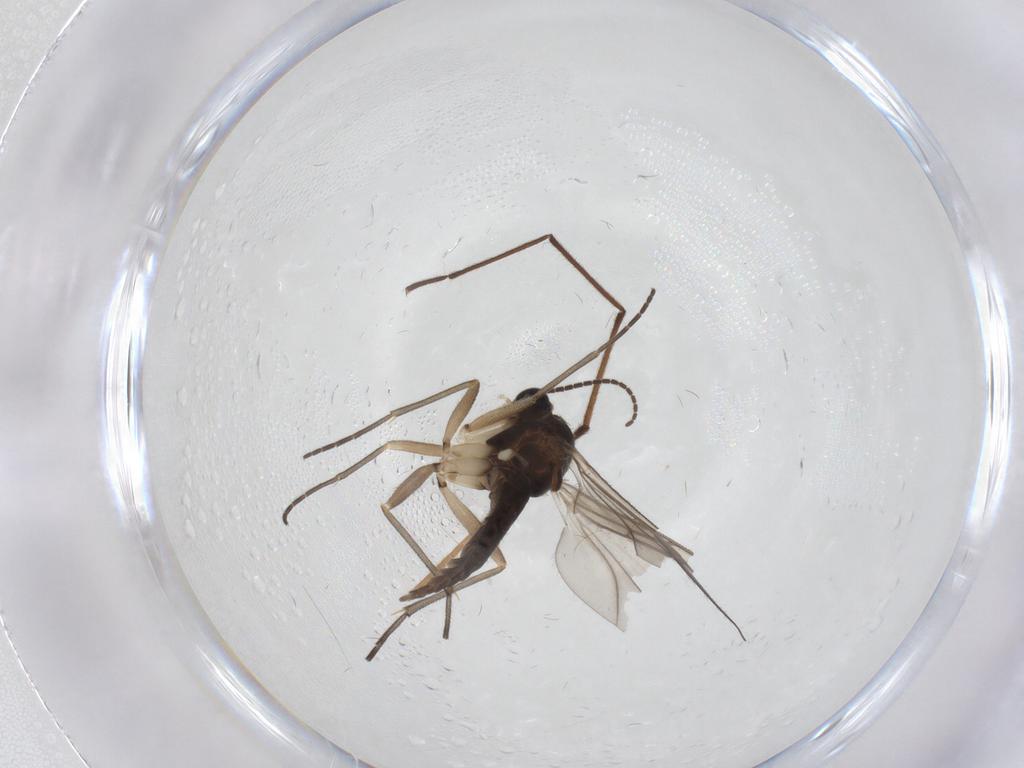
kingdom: Animalia
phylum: Arthropoda
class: Insecta
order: Diptera
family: Sciaridae
